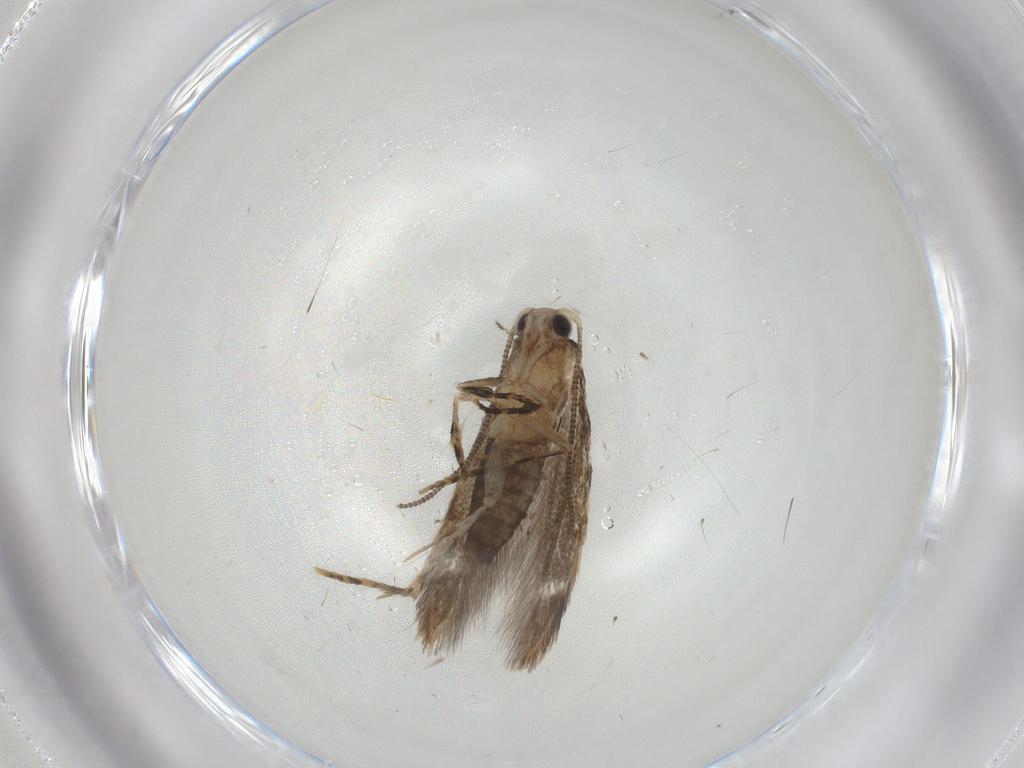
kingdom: Animalia
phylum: Arthropoda
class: Insecta
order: Lepidoptera
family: Tineidae
